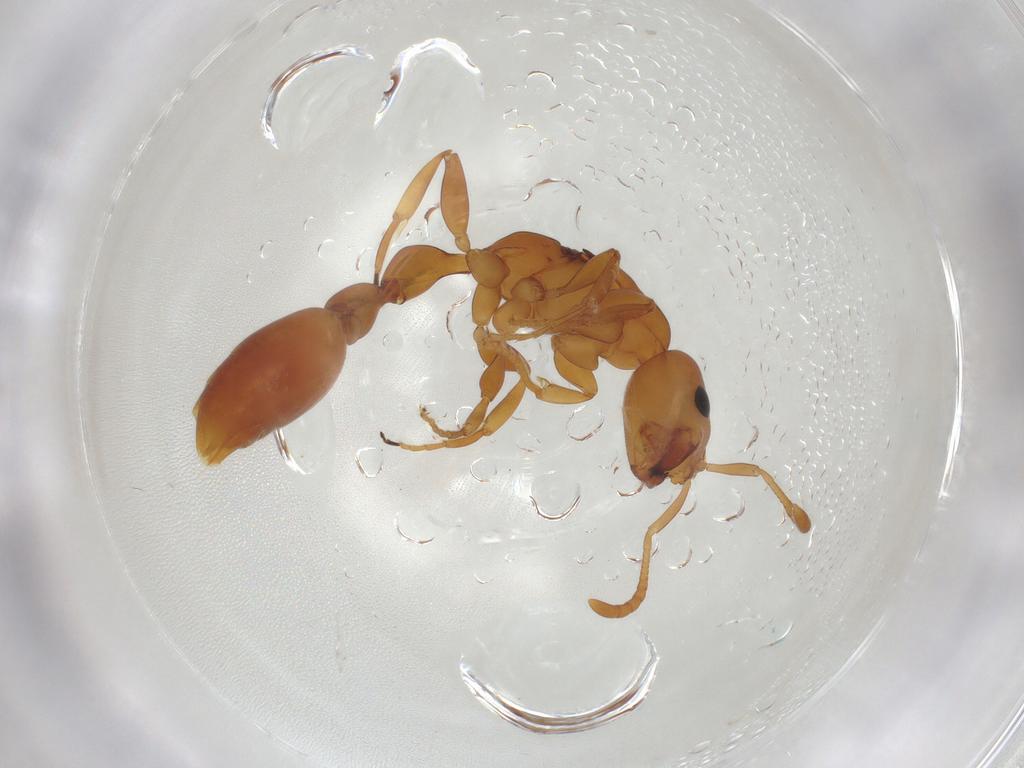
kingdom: Animalia
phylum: Arthropoda
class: Insecta
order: Hymenoptera
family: Formicidae
